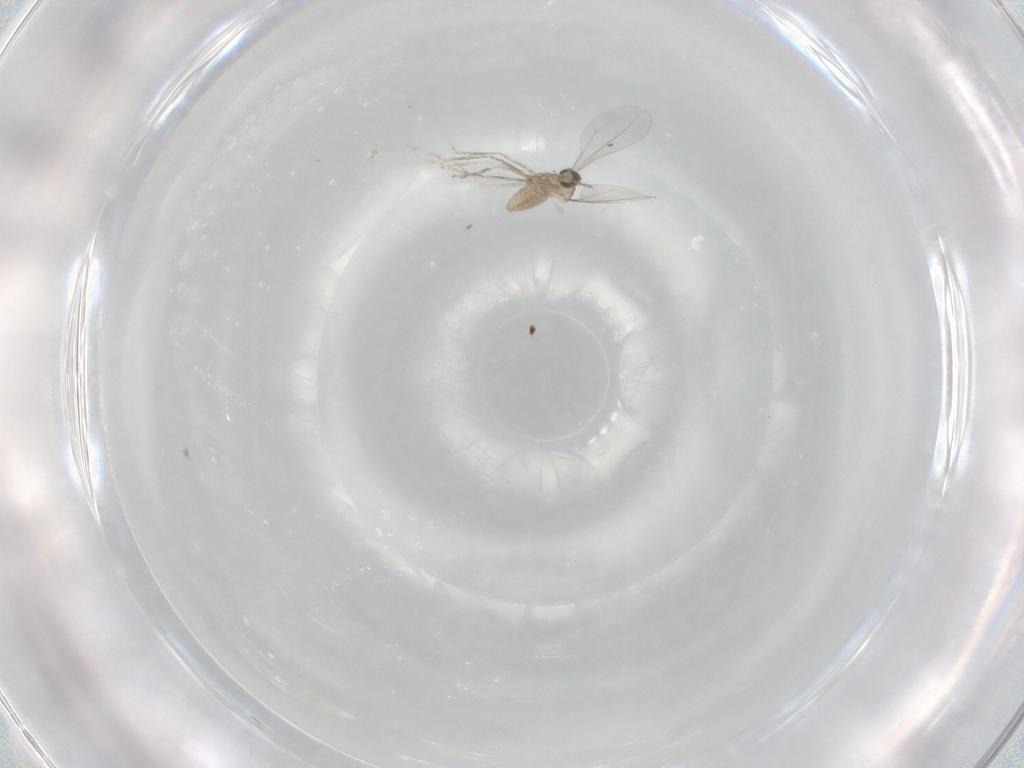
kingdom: Animalia
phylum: Arthropoda
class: Insecta
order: Diptera
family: Cecidomyiidae
